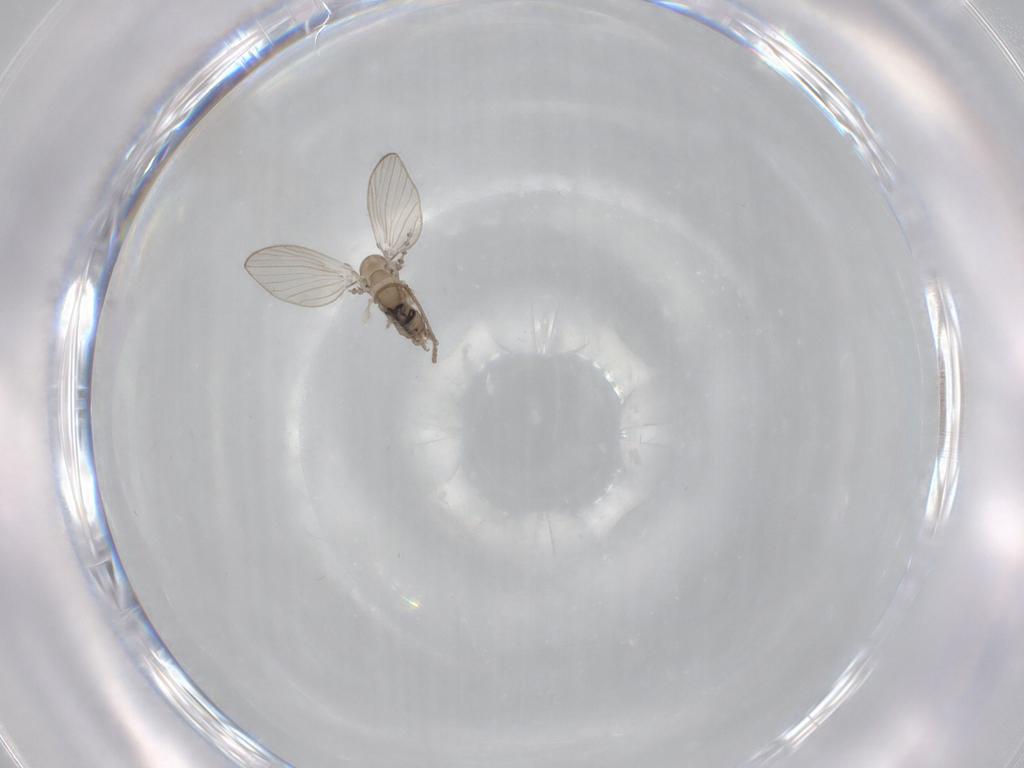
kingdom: Animalia
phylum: Arthropoda
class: Insecta
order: Diptera
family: Psychodidae
